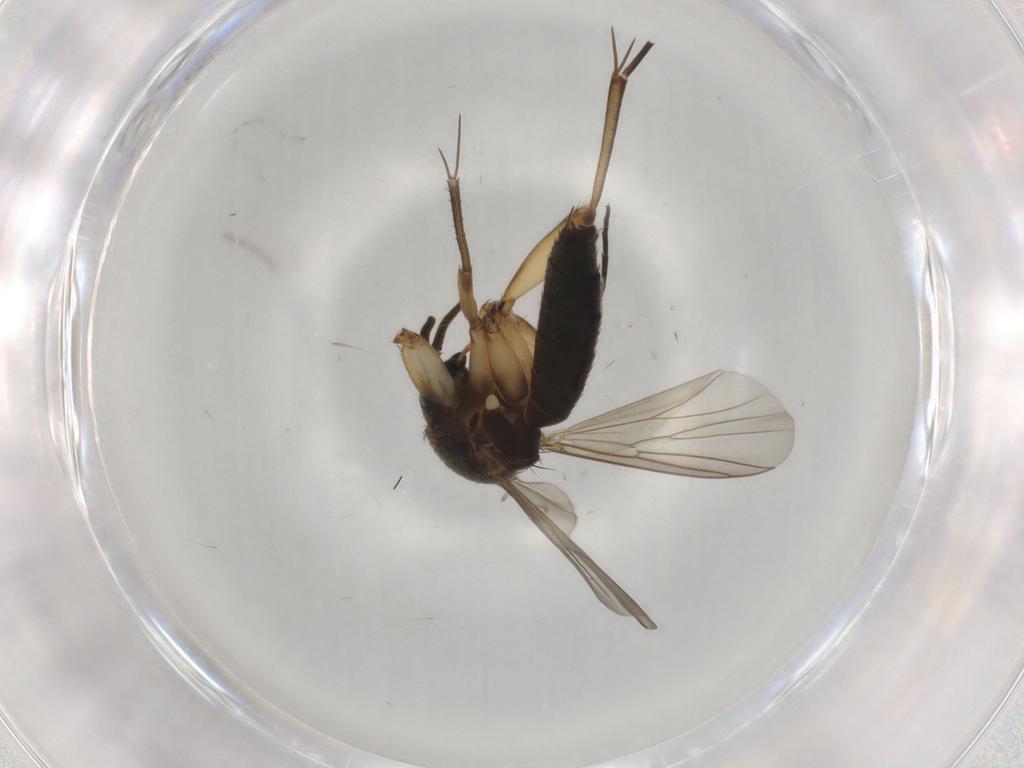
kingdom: Animalia
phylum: Arthropoda
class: Insecta
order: Diptera
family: Mycetophilidae
